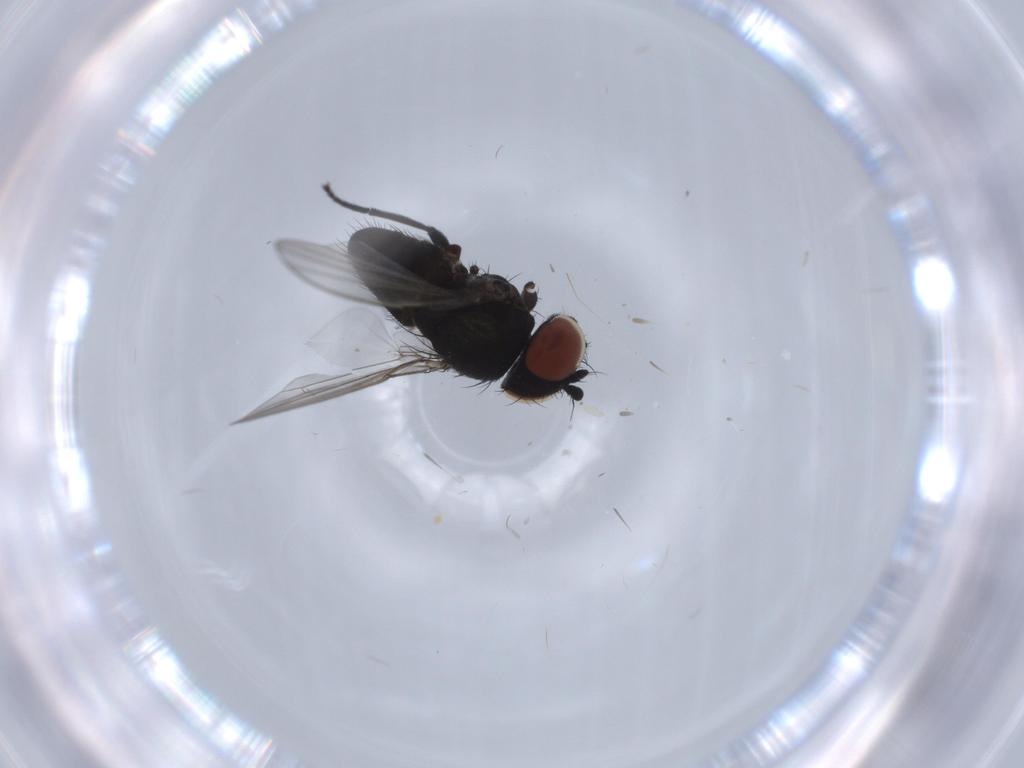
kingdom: Animalia
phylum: Arthropoda
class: Insecta
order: Diptera
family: Milichiidae
